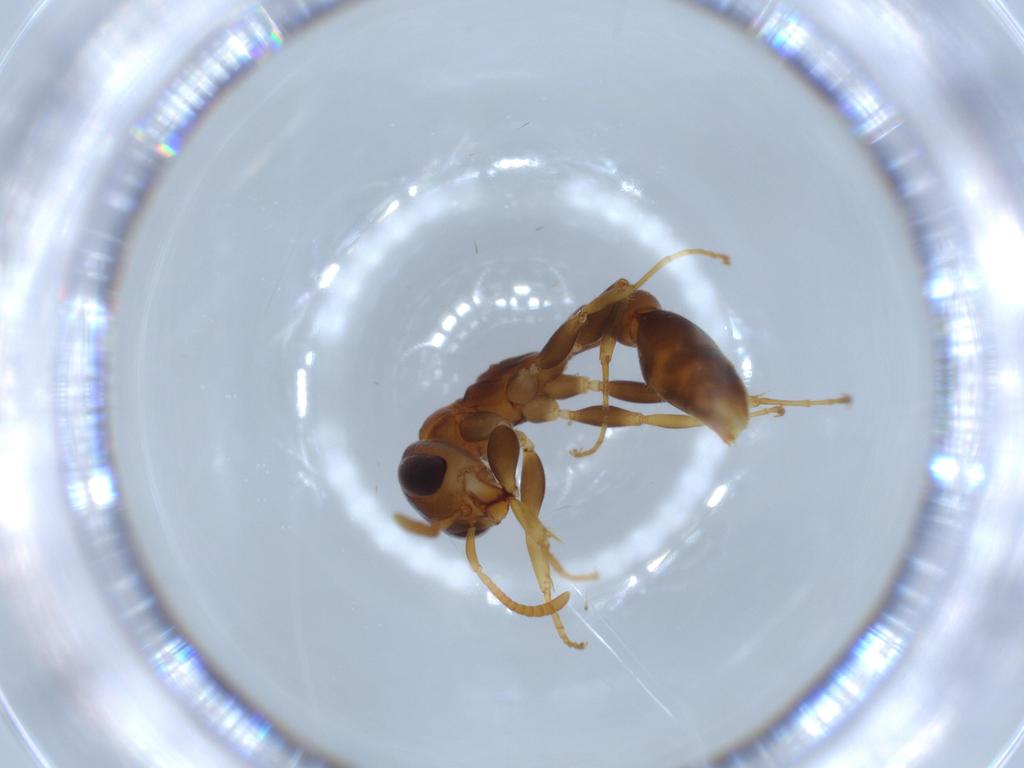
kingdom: Animalia
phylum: Arthropoda
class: Insecta
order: Hymenoptera
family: Formicidae
